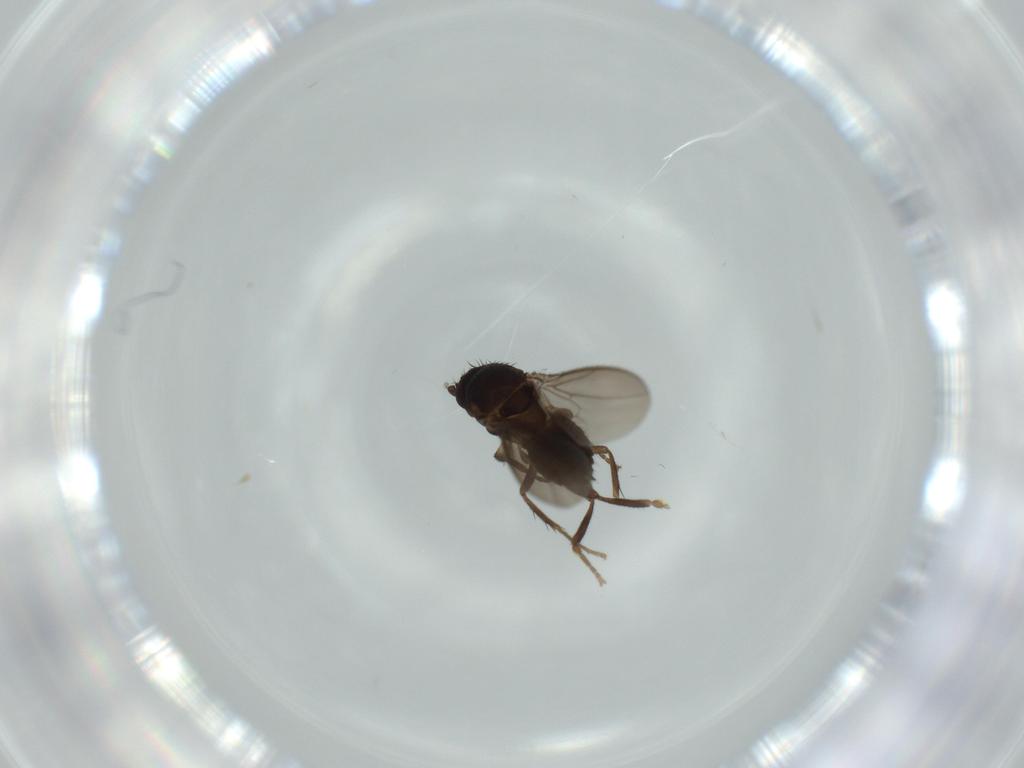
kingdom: Animalia
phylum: Arthropoda
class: Insecta
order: Diptera
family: Sphaeroceridae
